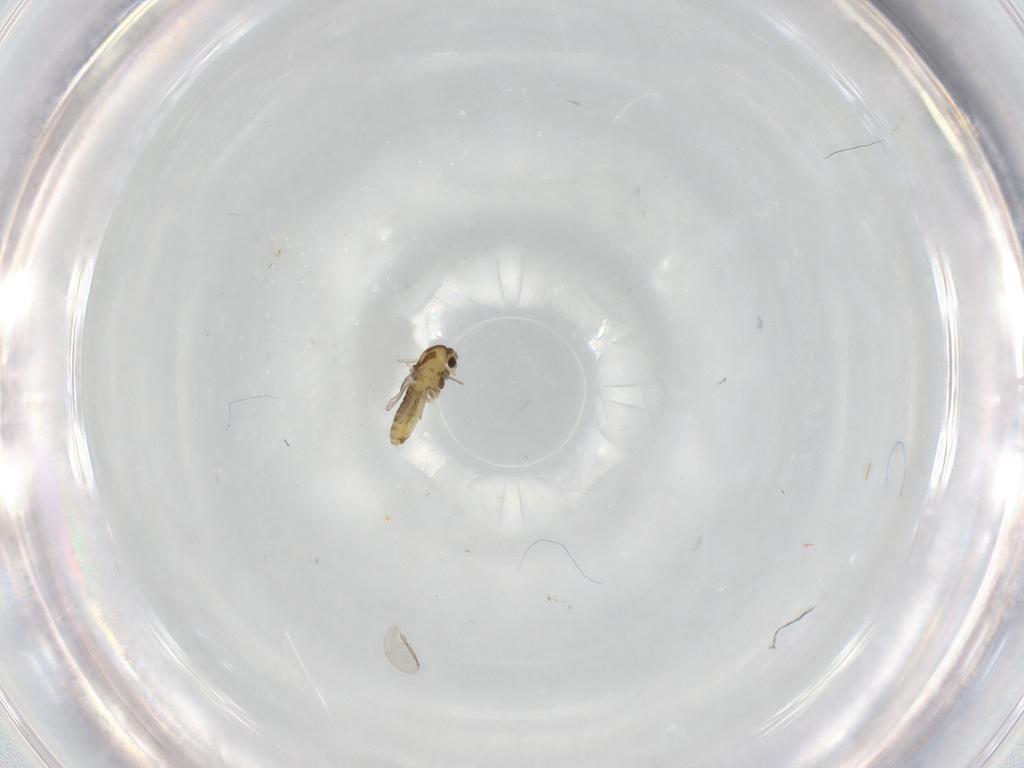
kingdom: Animalia
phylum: Arthropoda
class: Insecta
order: Diptera
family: Chironomidae
